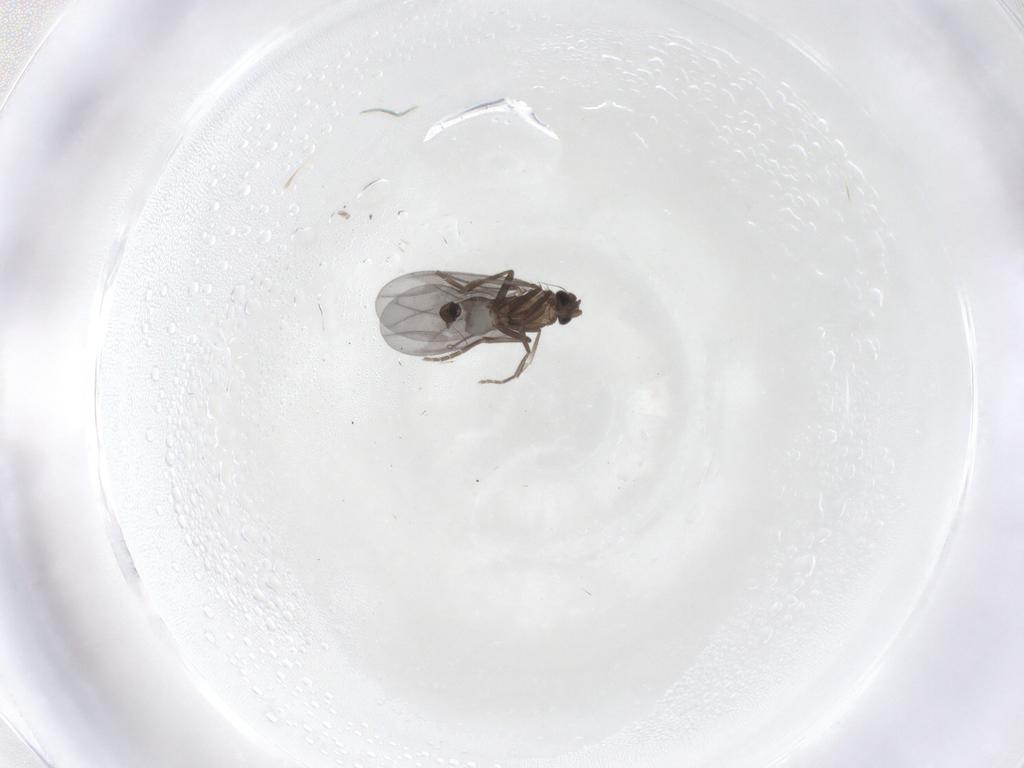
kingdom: Animalia
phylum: Arthropoda
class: Insecta
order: Diptera
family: Phoridae
